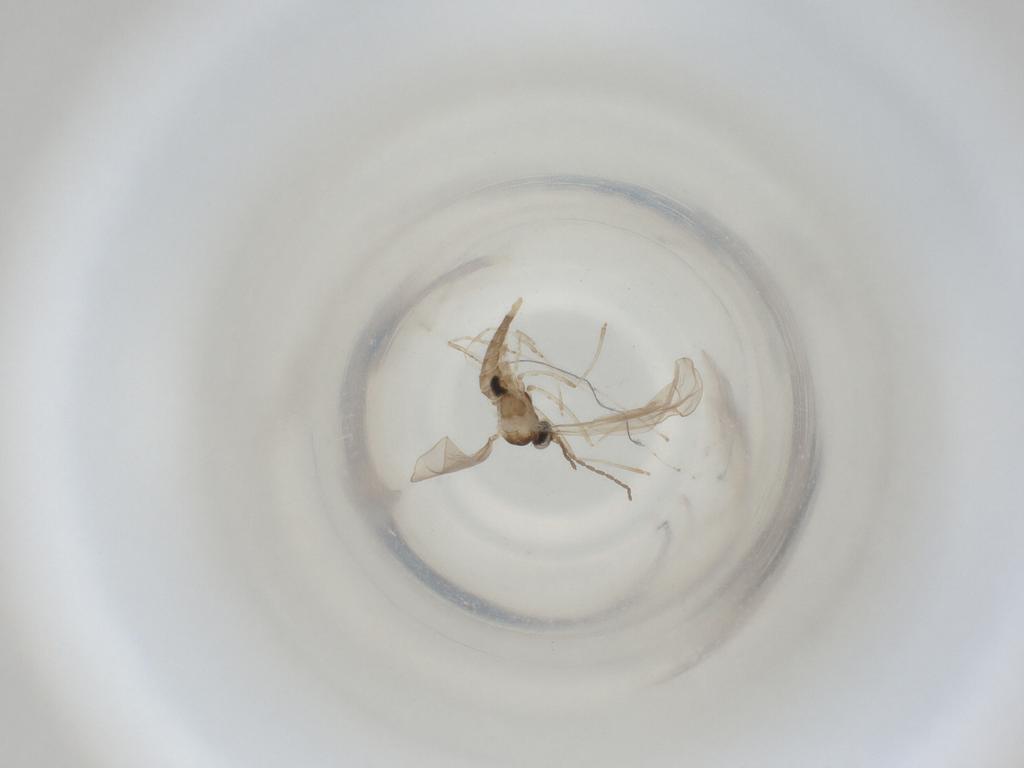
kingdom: Animalia
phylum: Arthropoda
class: Insecta
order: Diptera
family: Cecidomyiidae
